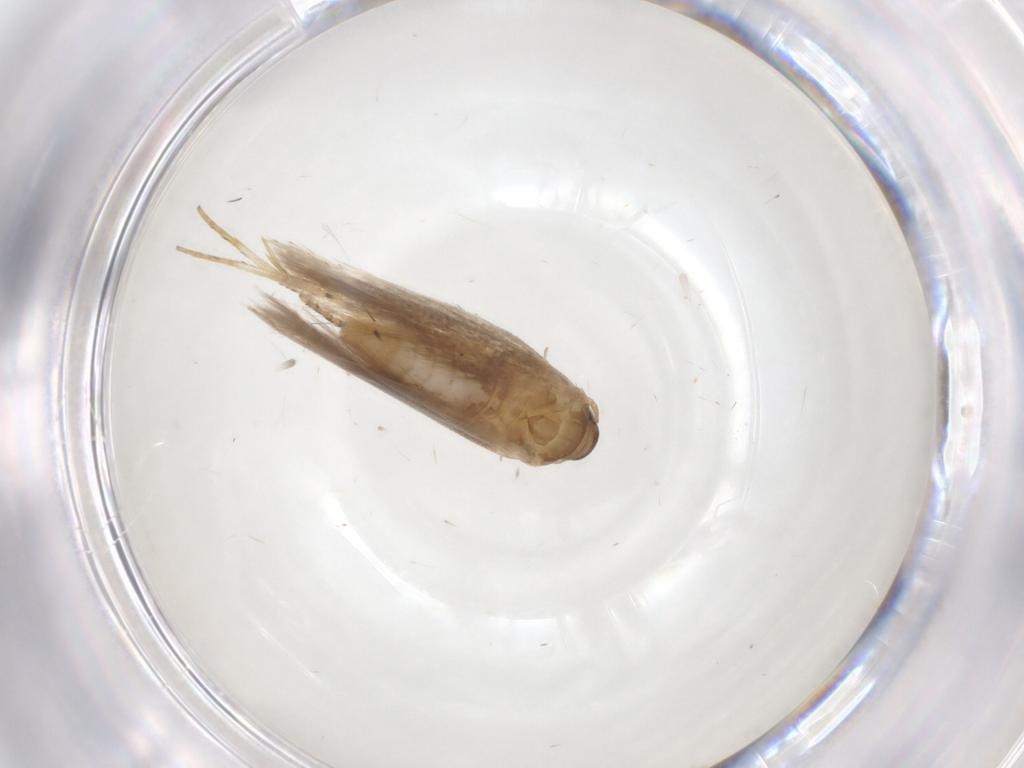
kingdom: Animalia
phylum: Arthropoda
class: Insecta
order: Lepidoptera
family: Gelechiidae
